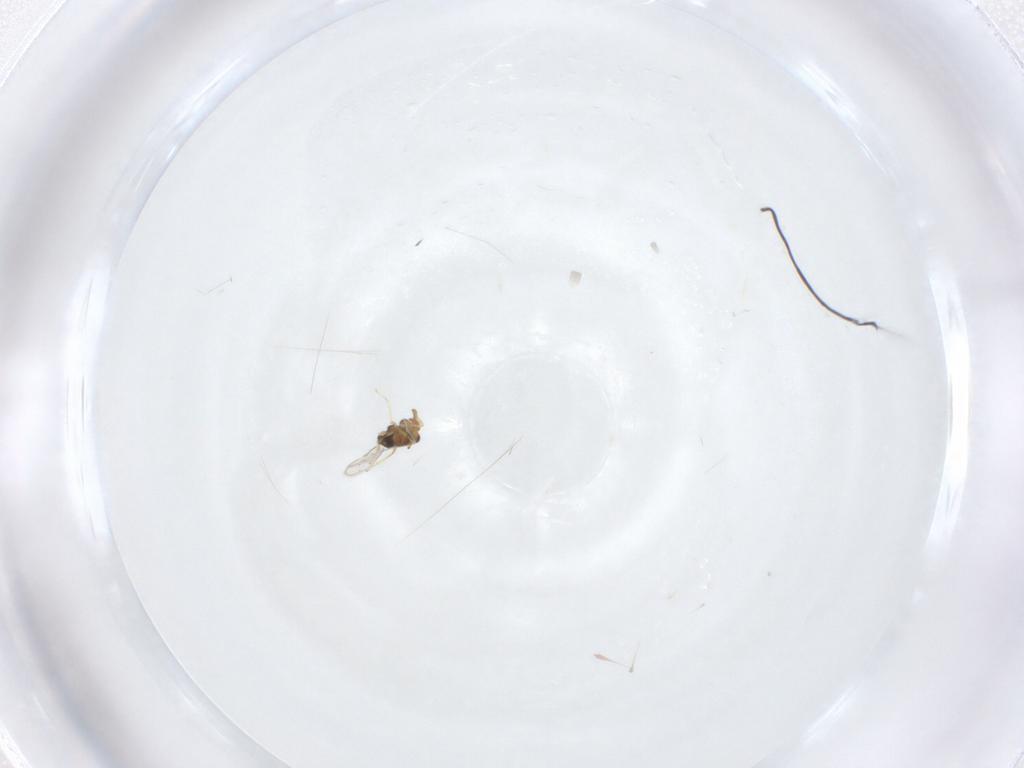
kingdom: Animalia
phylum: Arthropoda
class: Insecta
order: Hymenoptera
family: Aphelinidae
